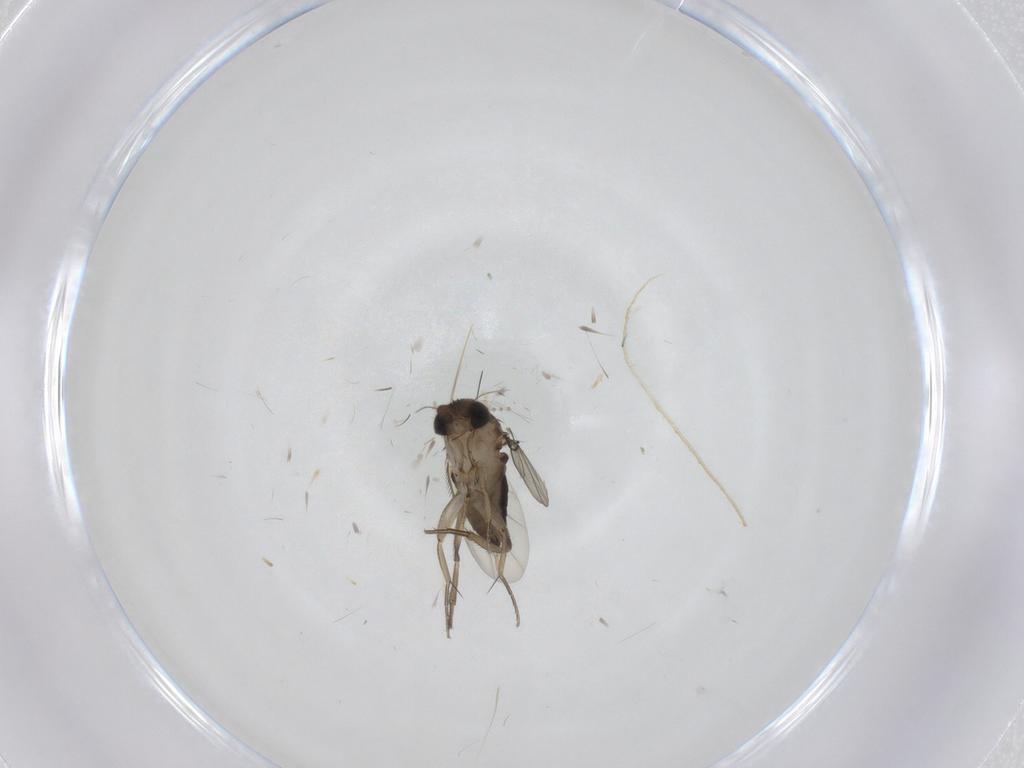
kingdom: Animalia
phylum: Arthropoda
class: Insecta
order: Diptera
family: Phoridae
